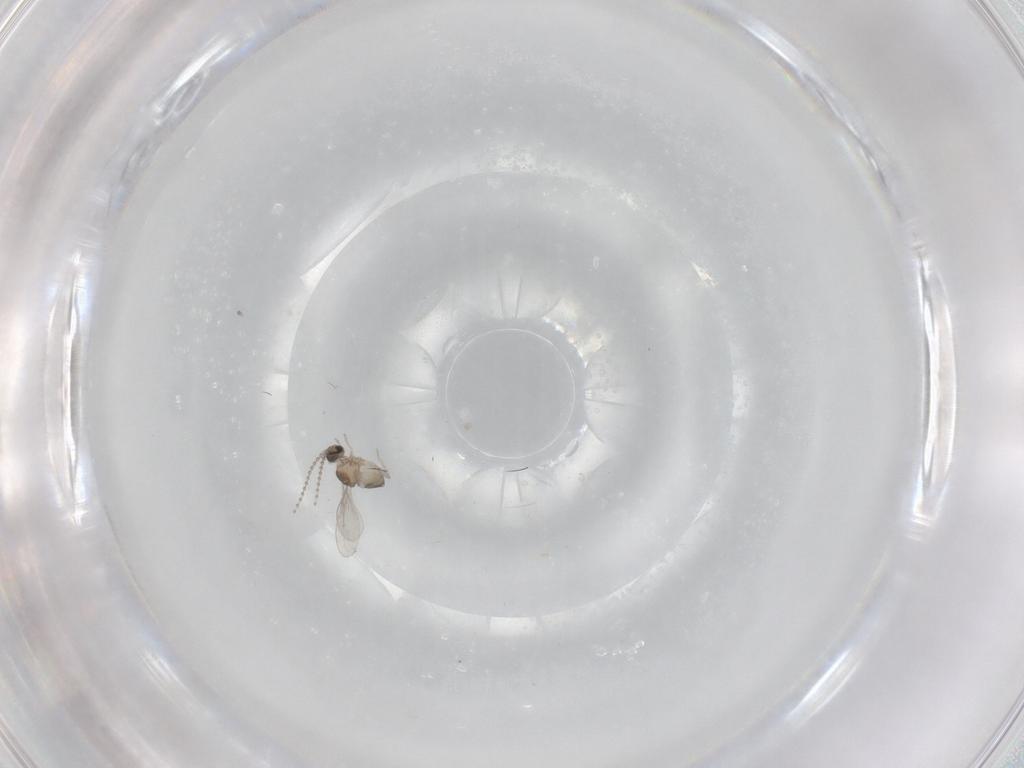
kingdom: Animalia
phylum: Arthropoda
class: Insecta
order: Diptera
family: Cecidomyiidae
